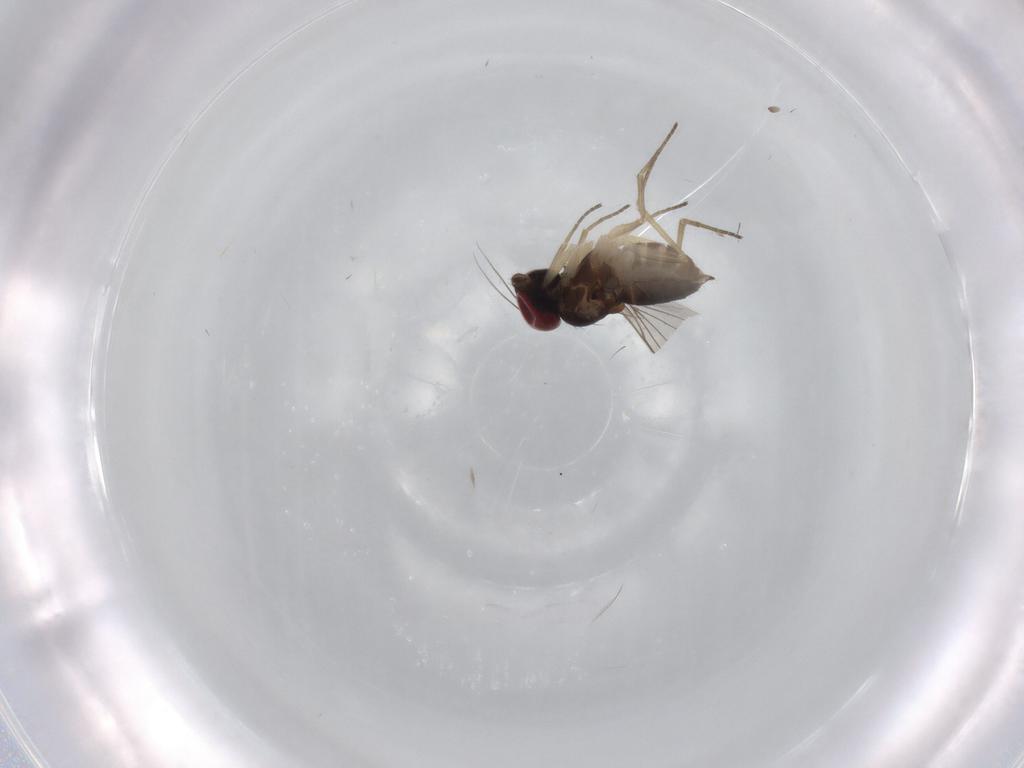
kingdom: Animalia
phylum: Arthropoda
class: Insecta
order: Diptera
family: Dolichopodidae
